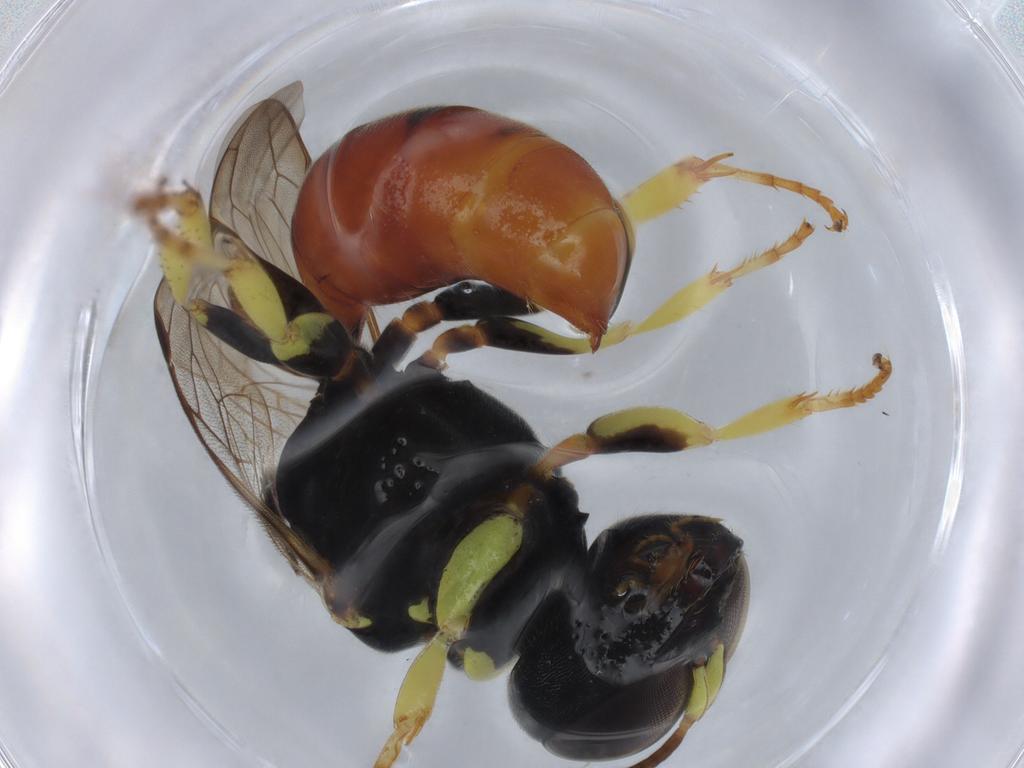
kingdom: Animalia
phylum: Arthropoda
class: Insecta
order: Hymenoptera
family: Crabronidae
